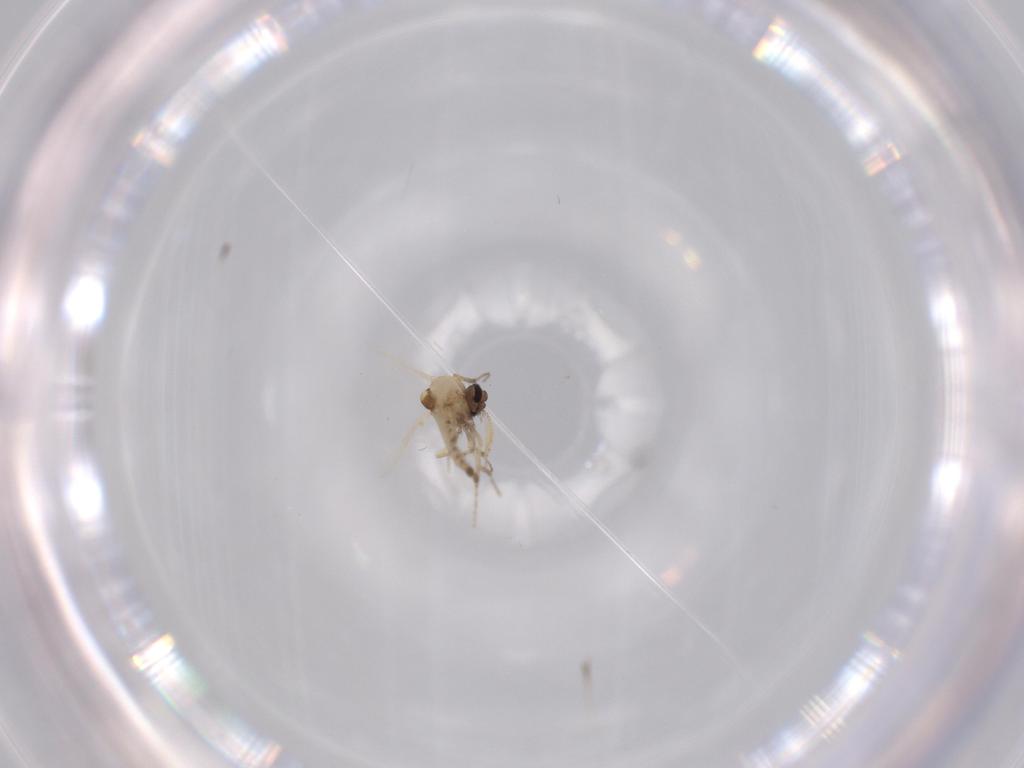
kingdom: Animalia
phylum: Arthropoda
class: Insecta
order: Diptera
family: Ceratopogonidae
